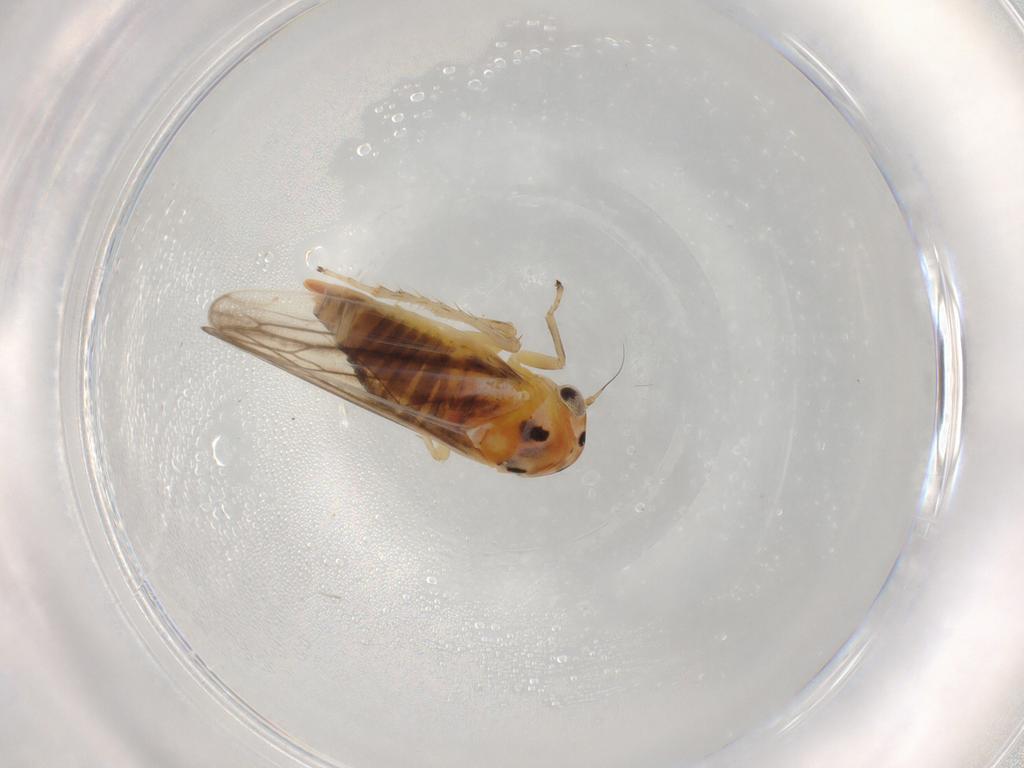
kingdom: Animalia
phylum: Arthropoda
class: Insecta
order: Hemiptera
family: Cicadellidae
